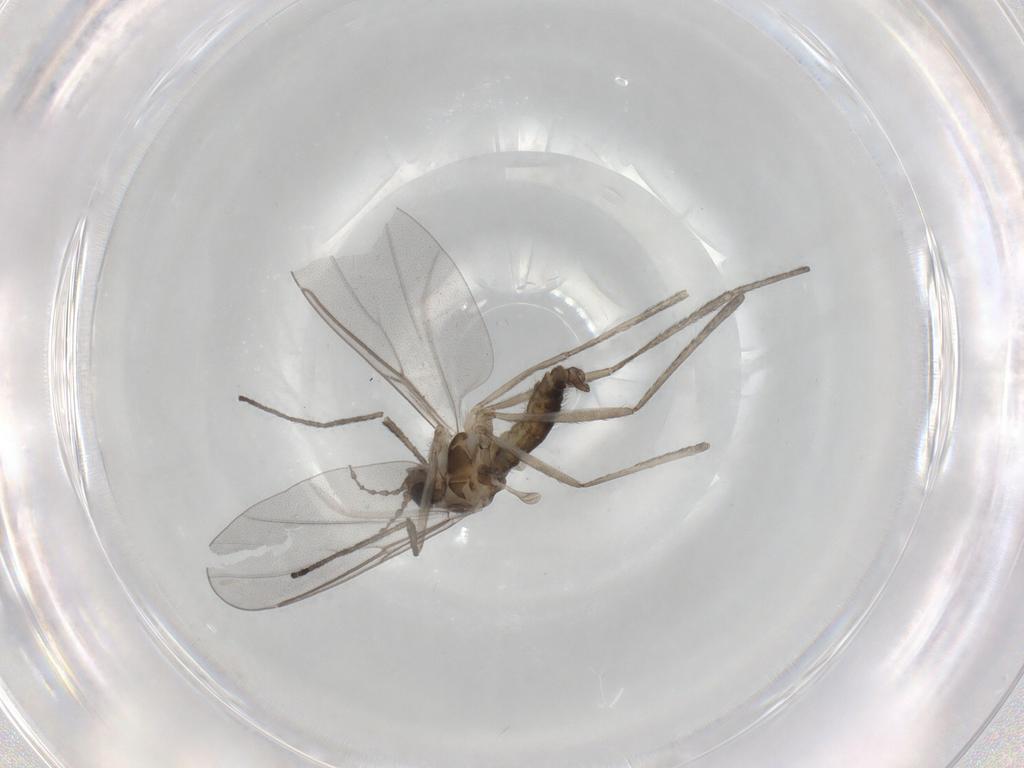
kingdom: Animalia
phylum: Arthropoda
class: Insecta
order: Diptera
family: Cecidomyiidae
